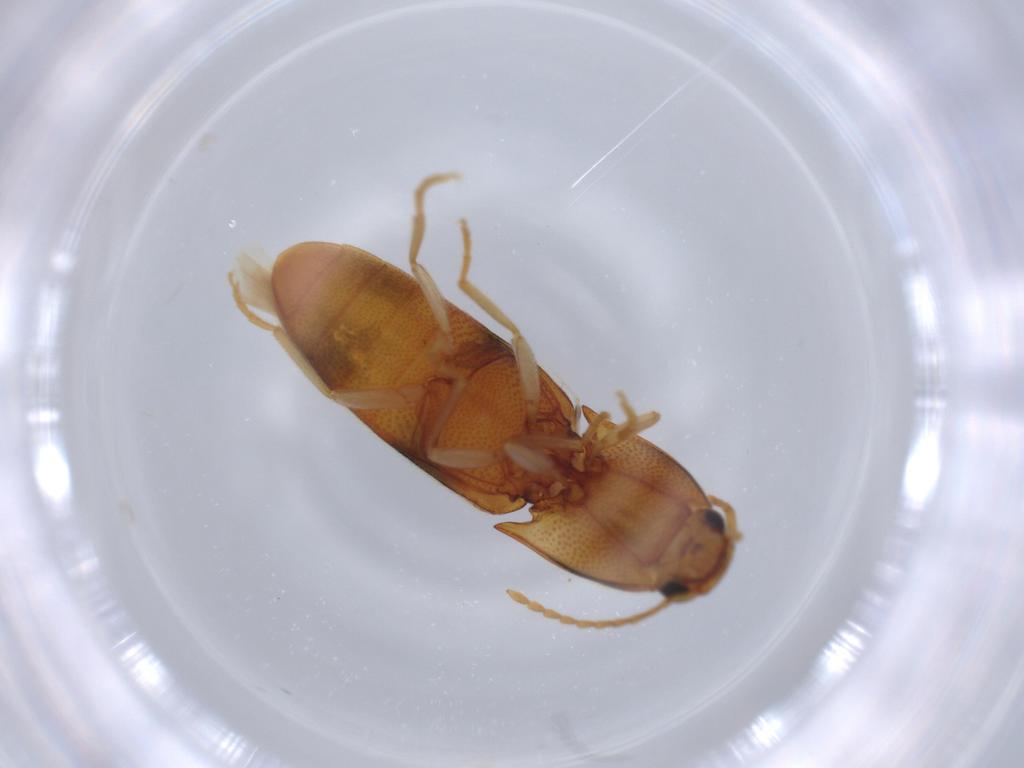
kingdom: Animalia
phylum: Arthropoda
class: Insecta
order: Coleoptera
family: Elateridae
